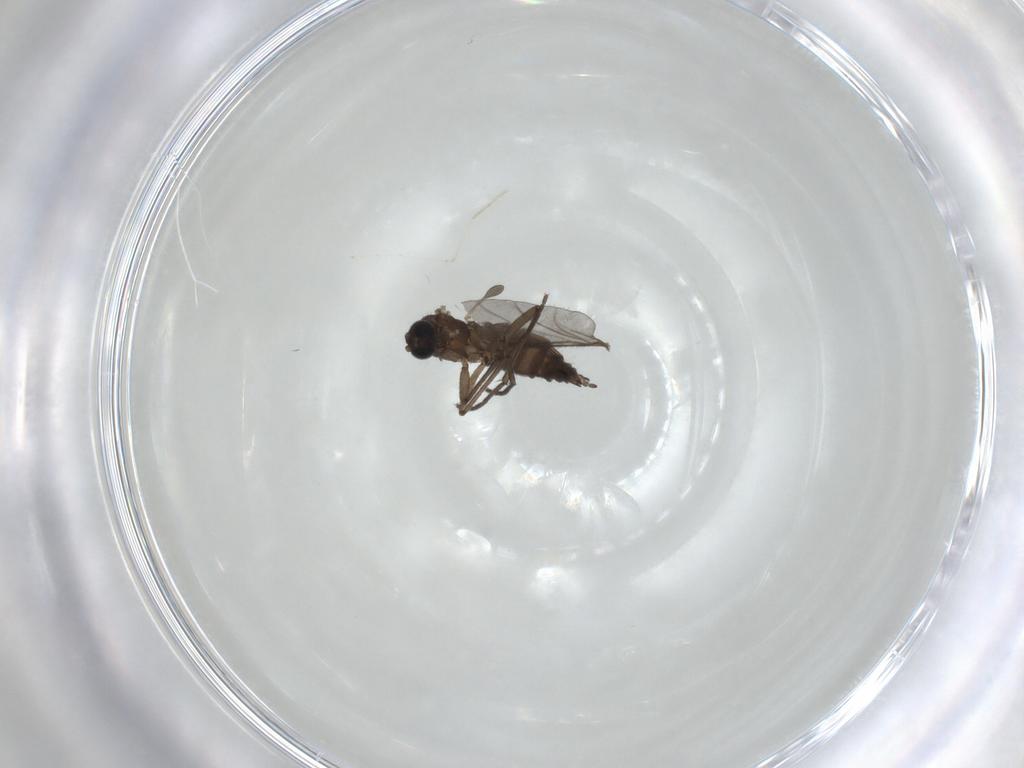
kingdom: Animalia
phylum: Arthropoda
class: Insecta
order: Diptera
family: Sciaridae
